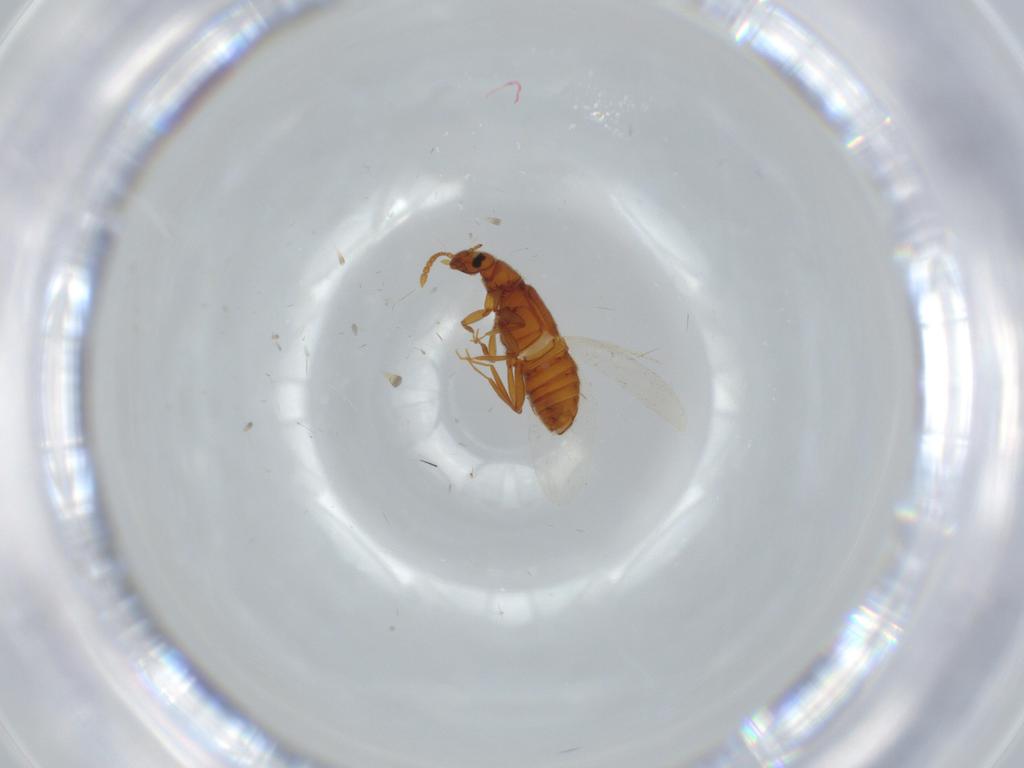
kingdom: Animalia
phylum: Arthropoda
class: Insecta
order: Coleoptera
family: Staphylinidae
